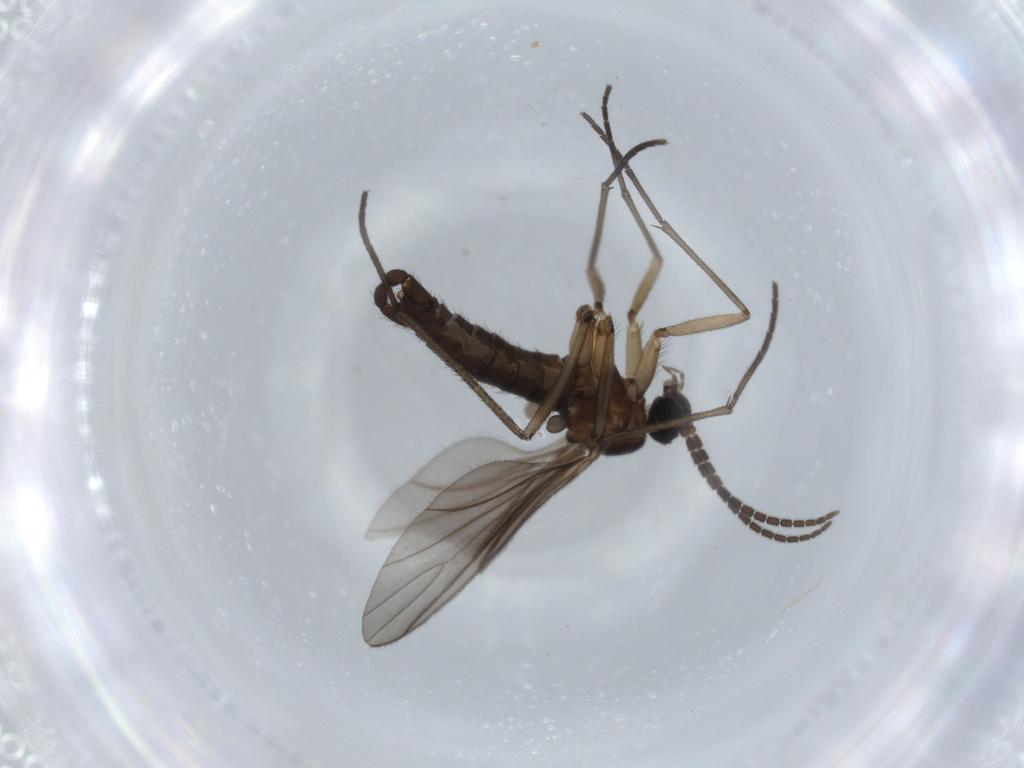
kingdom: Animalia
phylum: Arthropoda
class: Insecta
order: Diptera
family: Sciaridae
